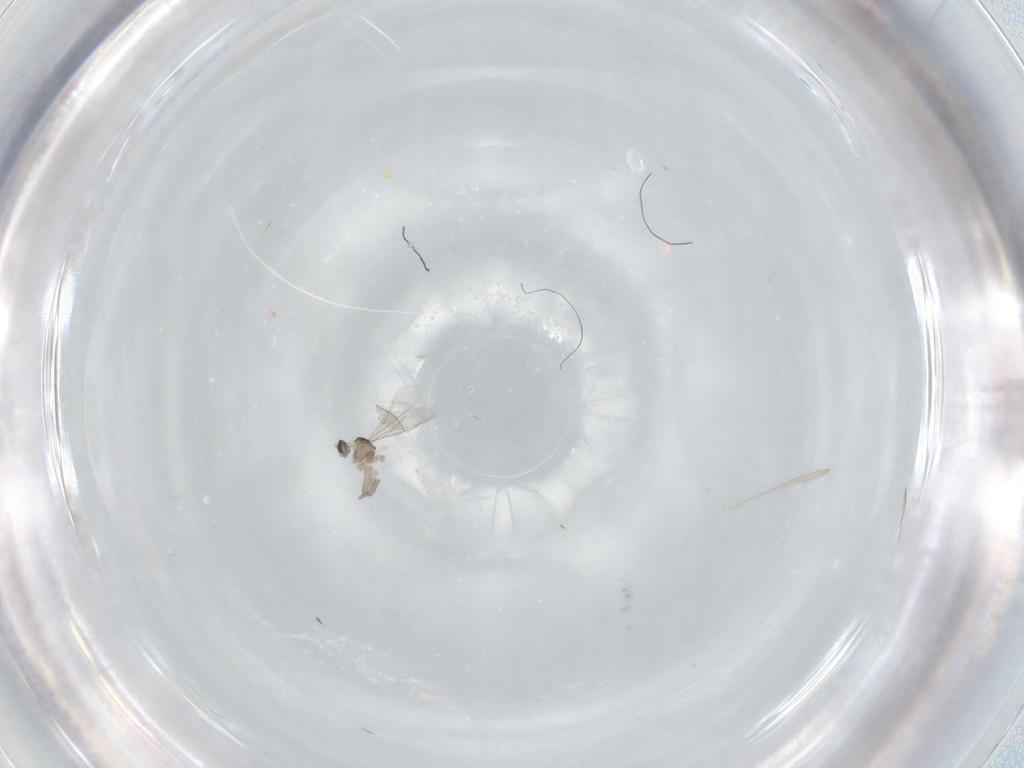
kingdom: Animalia
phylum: Arthropoda
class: Insecta
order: Diptera
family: Cecidomyiidae
